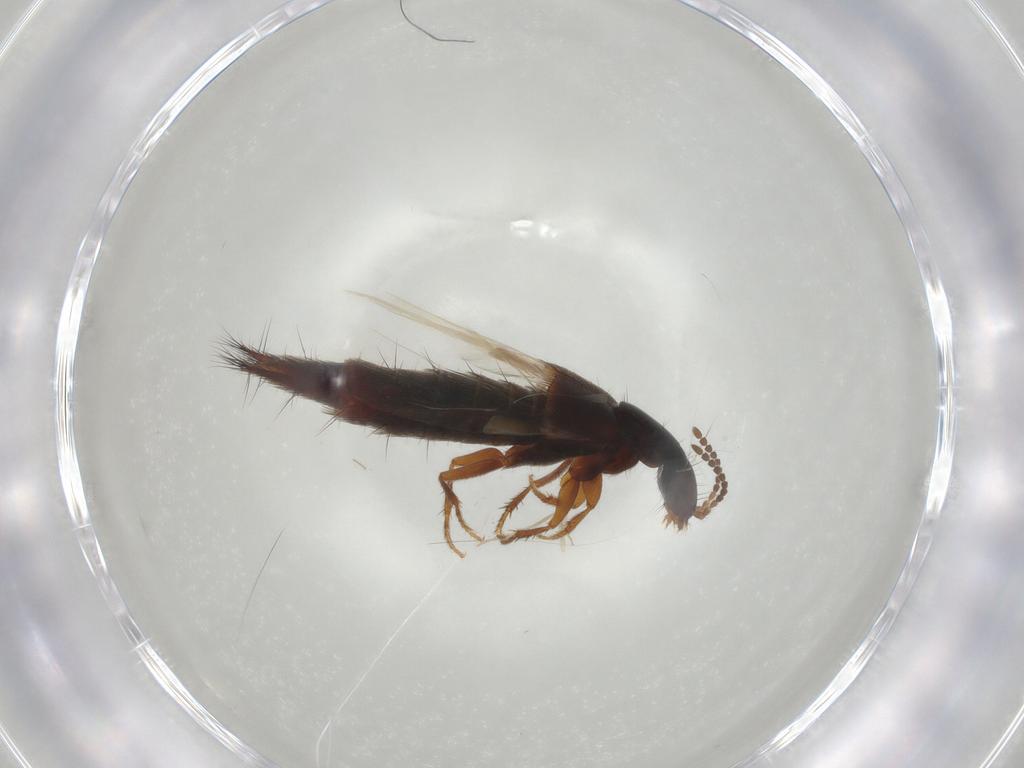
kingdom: Animalia
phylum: Arthropoda
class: Insecta
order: Coleoptera
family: Staphylinidae
